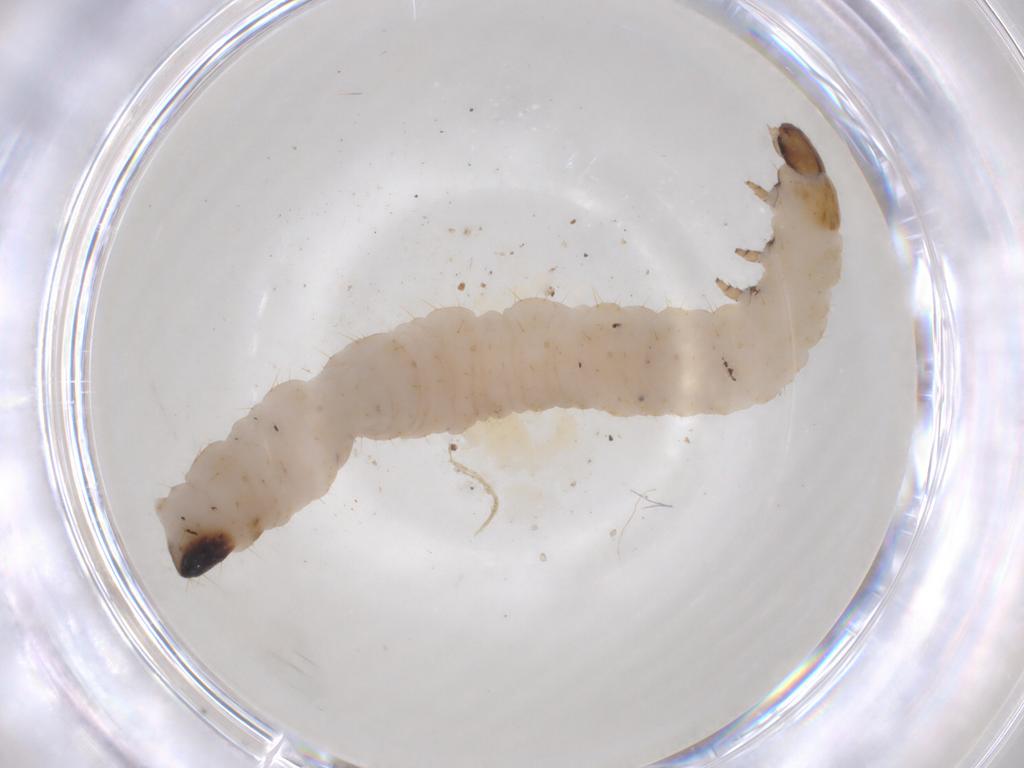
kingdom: Animalia
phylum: Arthropoda
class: Insecta
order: Coleoptera
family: Chrysomelidae
